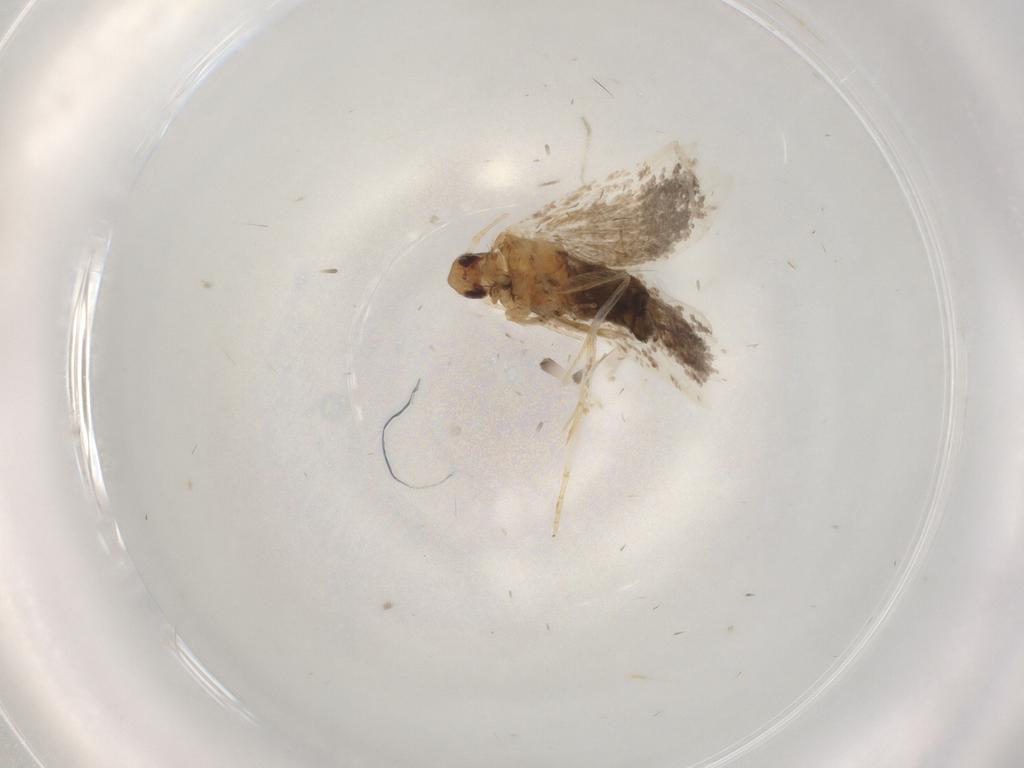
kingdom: Animalia
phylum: Arthropoda
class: Insecta
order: Lepidoptera
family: Oecophoridae
